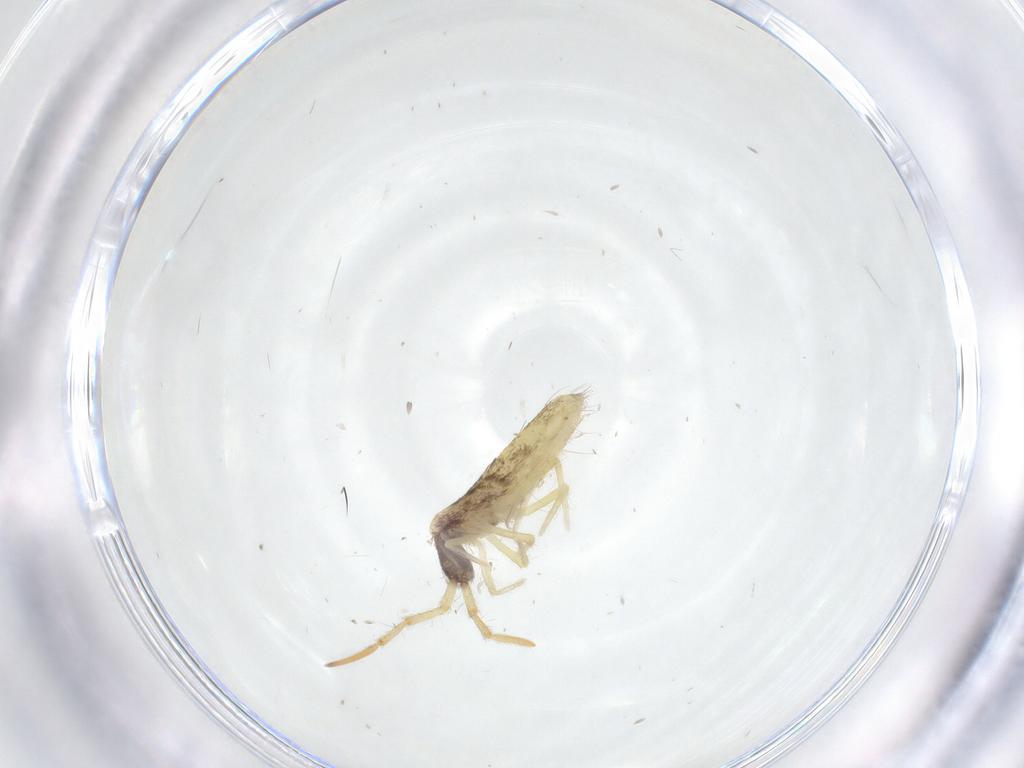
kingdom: Animalia
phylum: Arthropoda
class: Collembola
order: Entomobryomorpha
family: Entomobryidae
